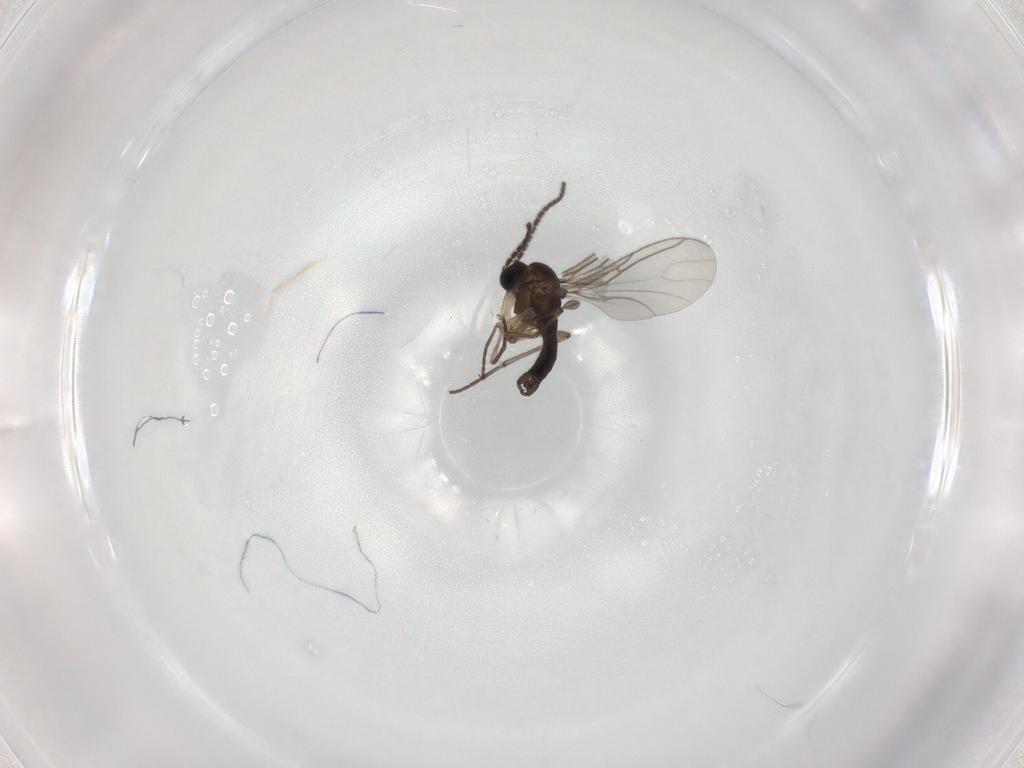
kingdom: Animalia
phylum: Arthropoda
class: Insecta
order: Diptera
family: Sciaridae
